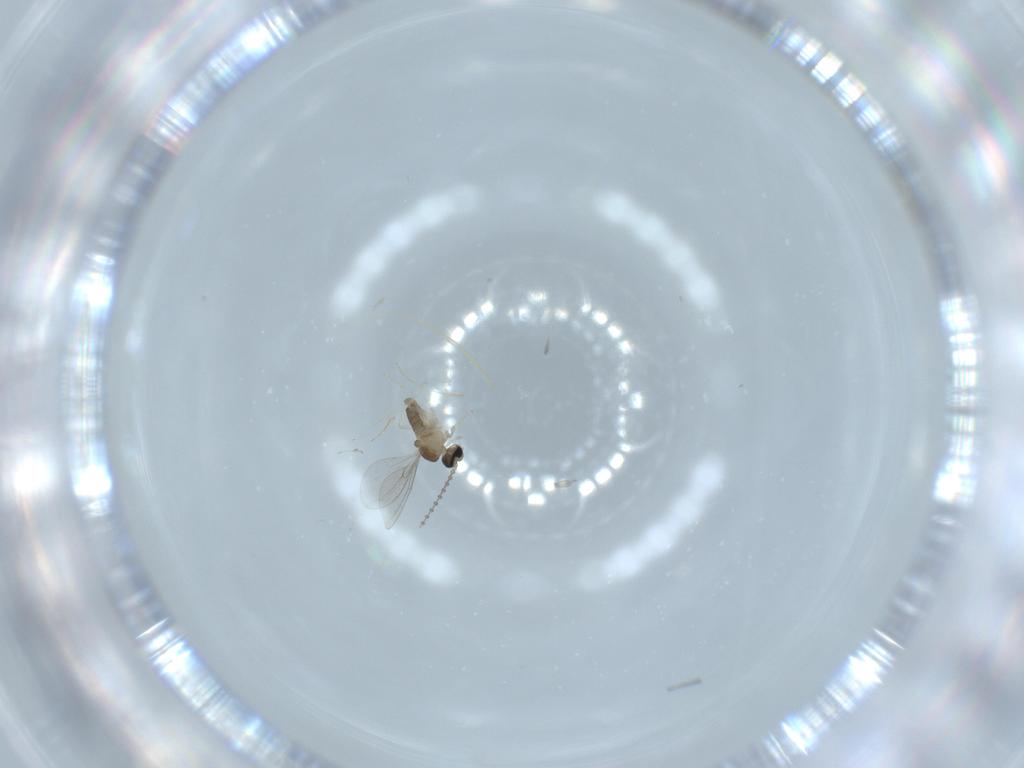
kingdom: Animalia
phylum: Arthropoda
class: Insecta
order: Diptera
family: Cecidomyiidae
